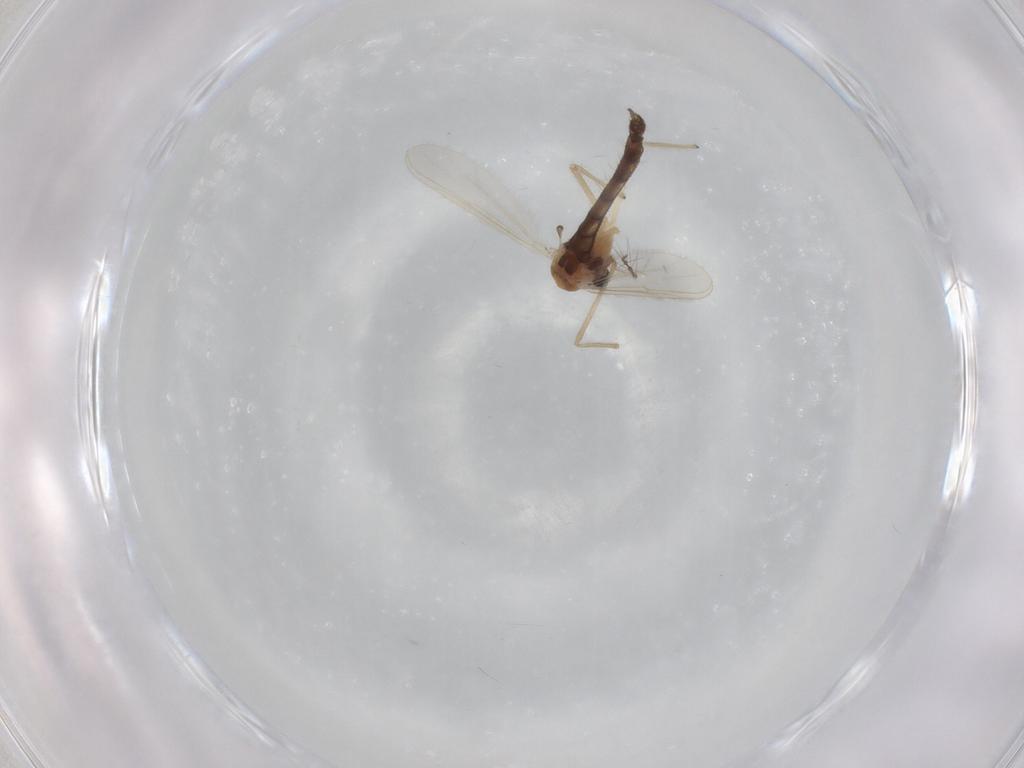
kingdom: Animalia
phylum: Arthropoda
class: Insecta
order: Diptera
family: Chironomidae
